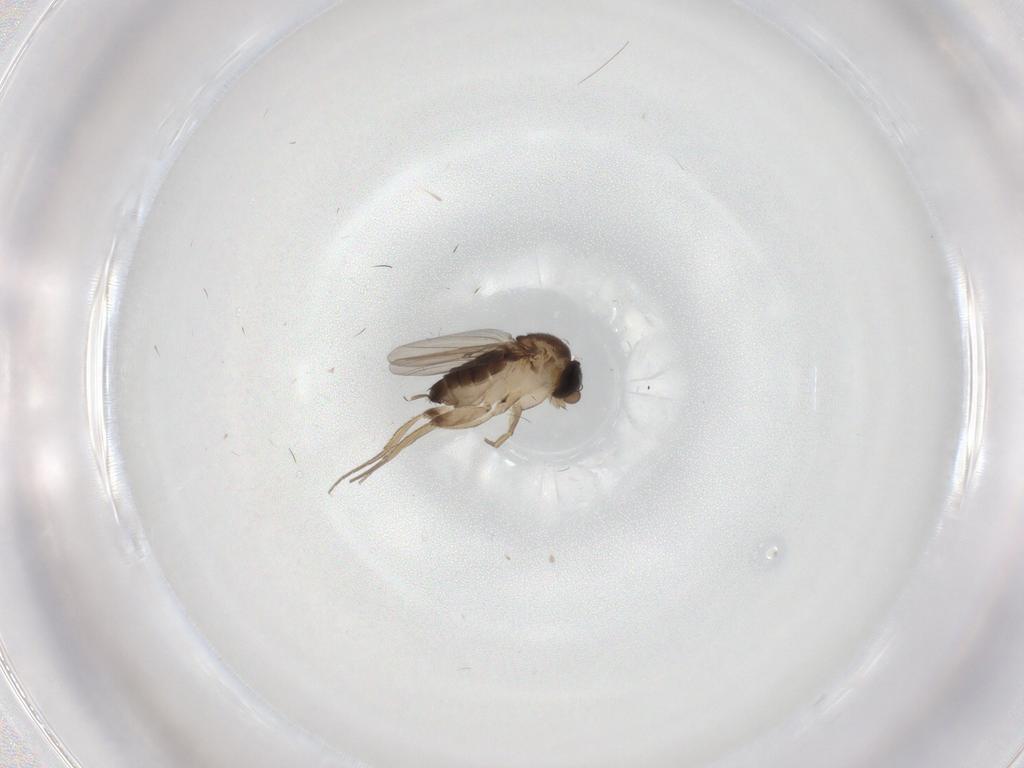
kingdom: Animalia
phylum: Arthropoda
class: Insecta
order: Diptera
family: Phoridae
